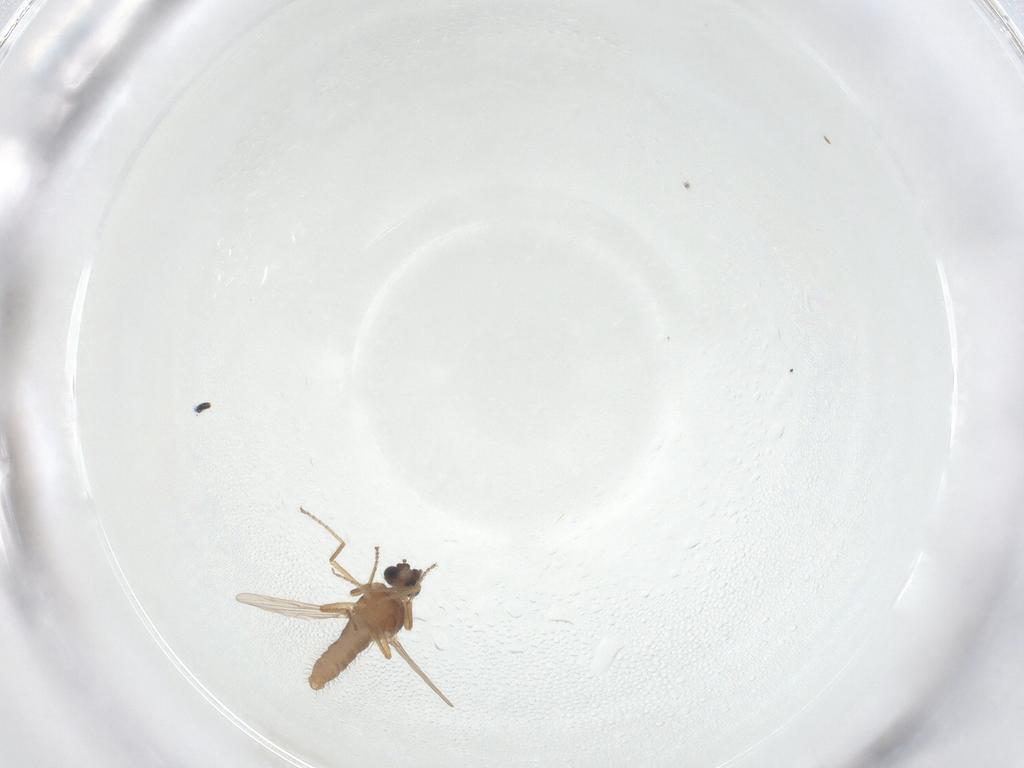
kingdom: Animalia
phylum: Arthropoda
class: Insecta
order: Diptera
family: Ceratopogonidae
